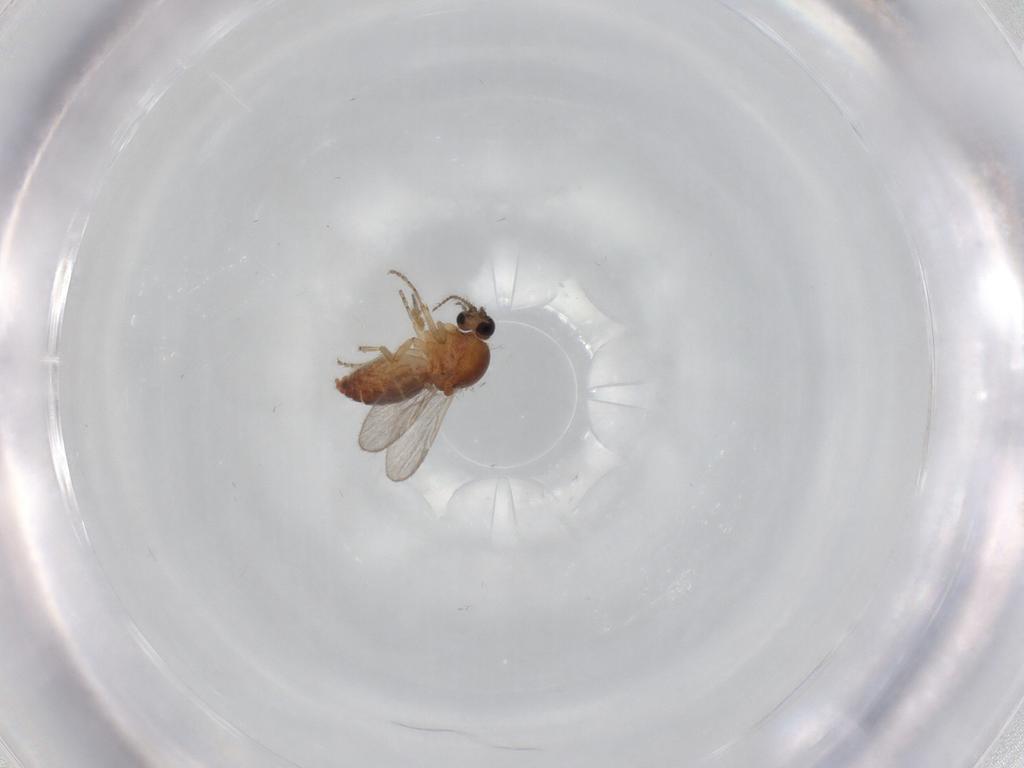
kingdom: Animalia
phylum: Arthropoda
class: Insecta
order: Diptera
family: Ceratopogonidae
